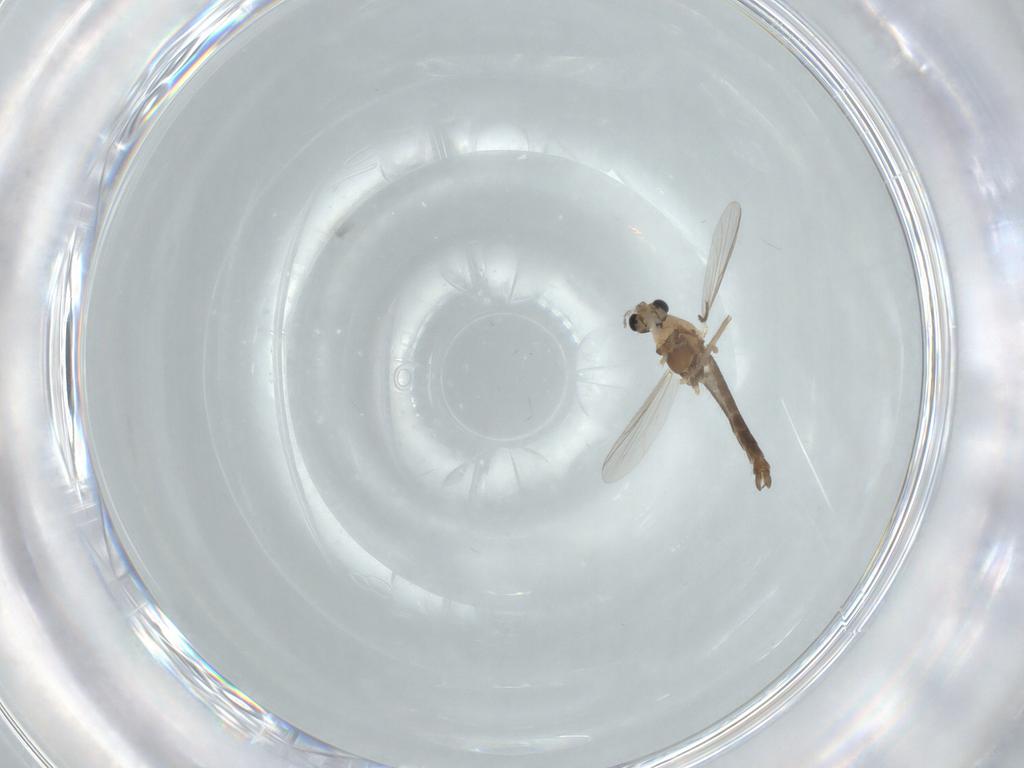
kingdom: Animalia
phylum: Arthropoda
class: Insecta
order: Diptera
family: Chironomidae
